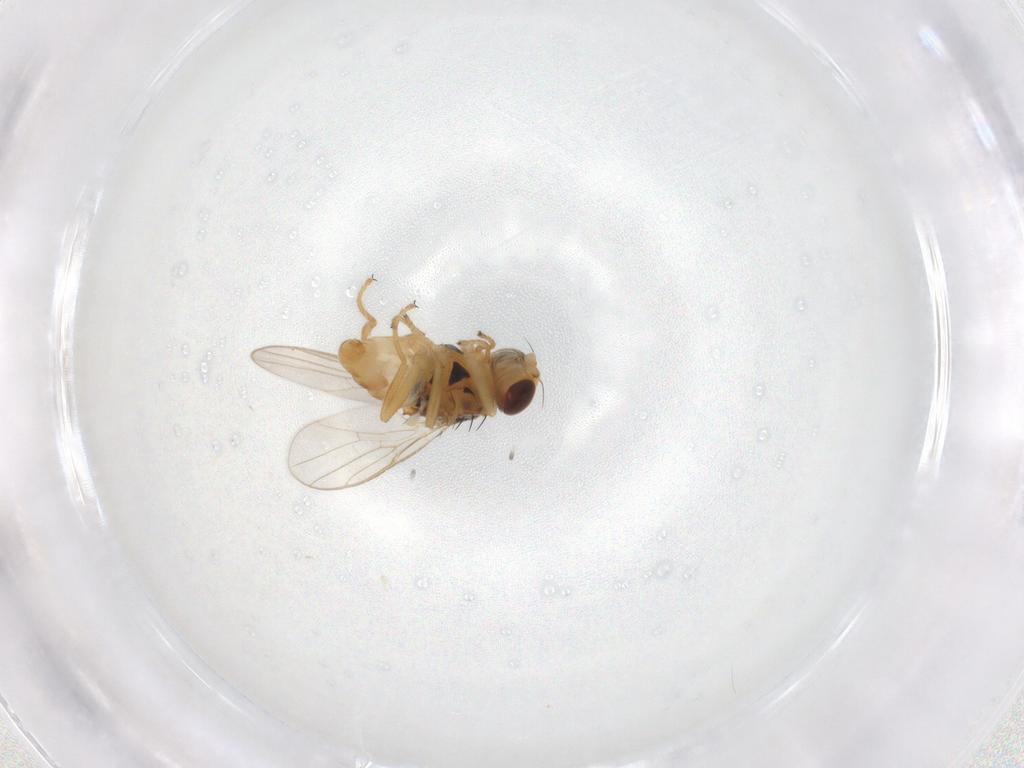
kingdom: Animalia
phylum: Arthropoda
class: Insecta
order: Diptera
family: Chloropidae
